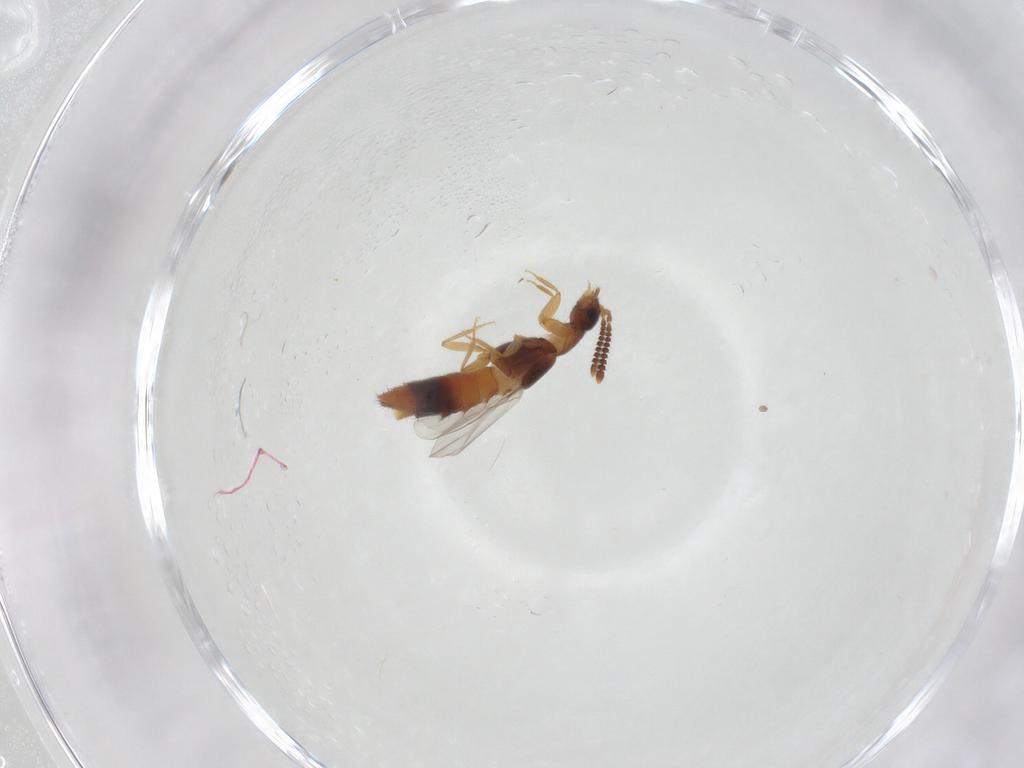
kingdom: Animalia
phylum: Arthropoda
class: Insecta
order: Coleoptera
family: Staphylinidae
